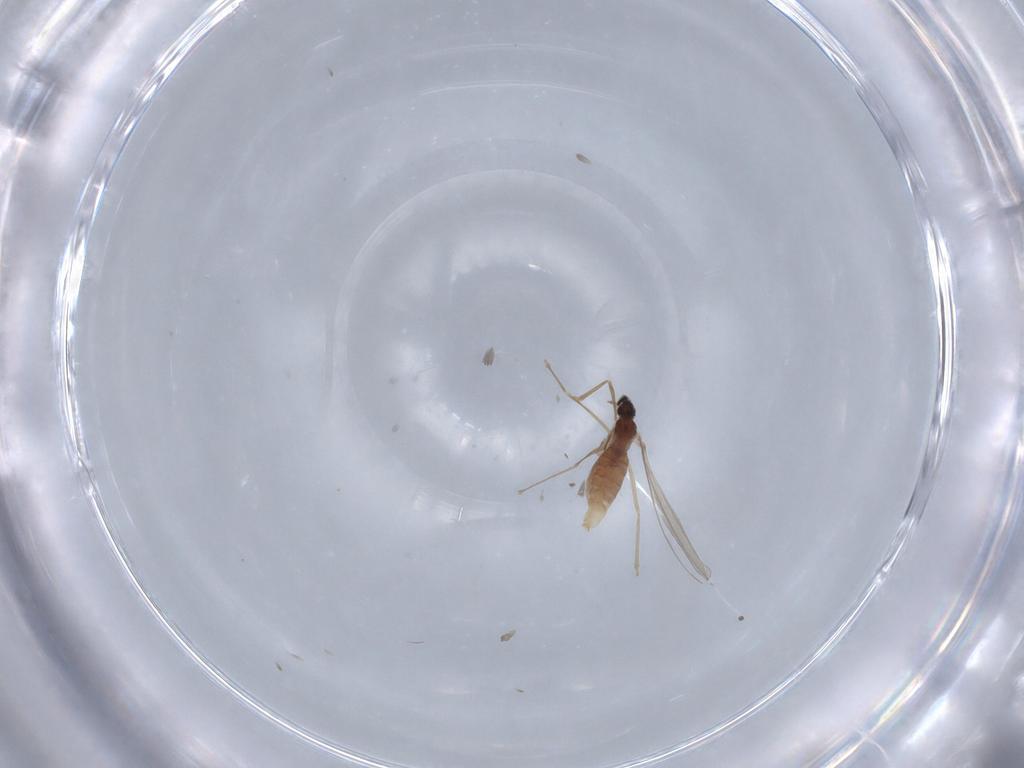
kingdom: Animalia
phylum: Arthropoda
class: Insecta
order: Diptera
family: Cecidomyiidae
